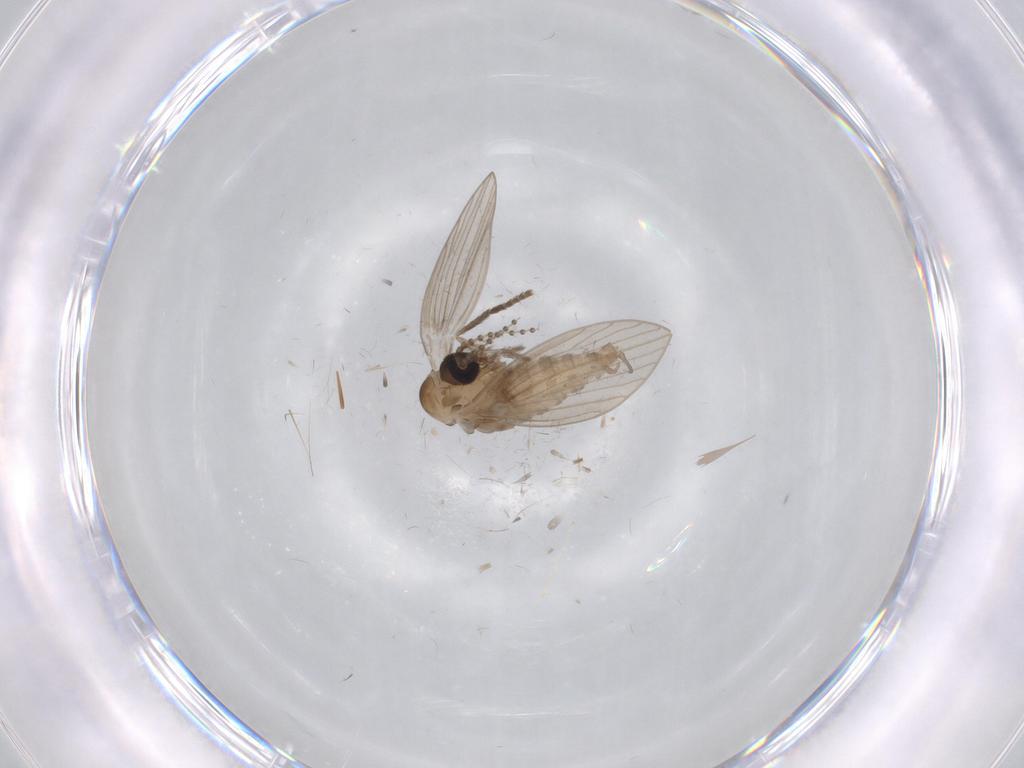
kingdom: Animalia
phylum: Arthropoda
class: Insecta
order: Diptera
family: Psychodidae
